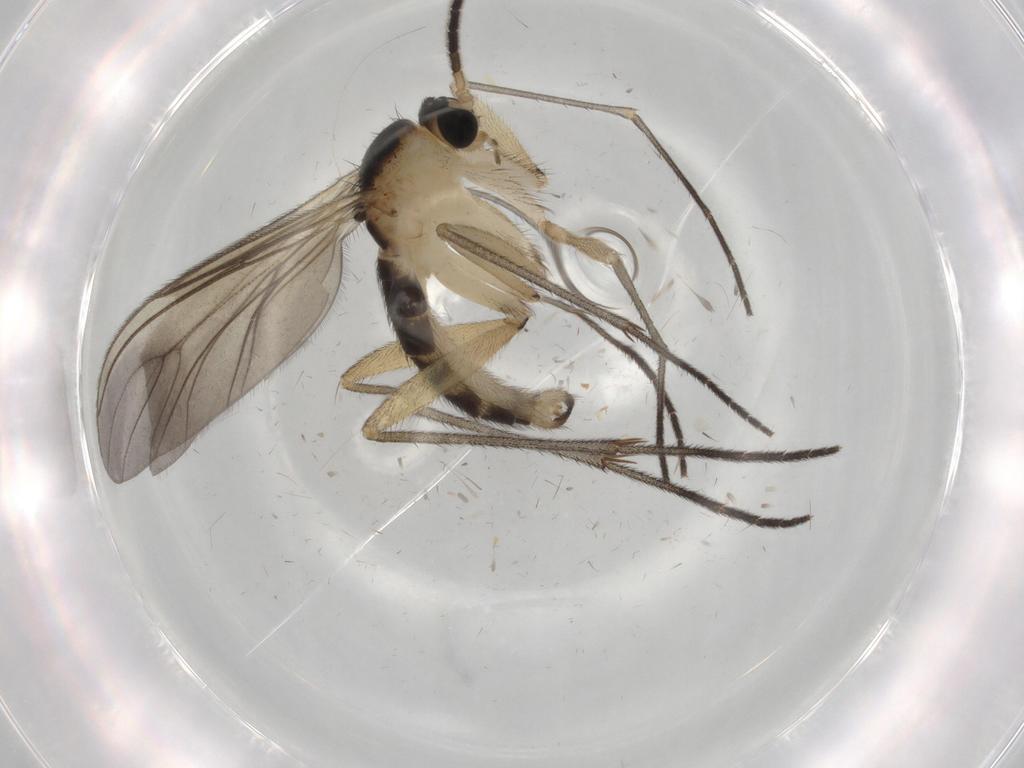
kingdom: Animalia
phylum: Arthropoda
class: Insecta
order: Diptera
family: Sciaridae
